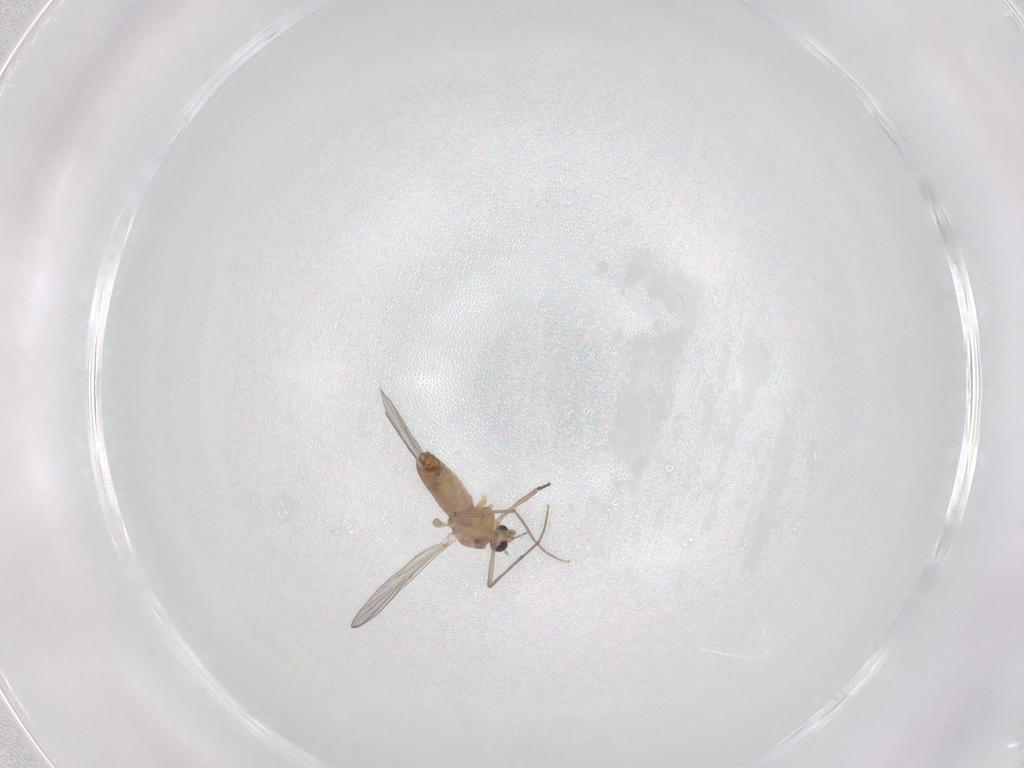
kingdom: Animalia
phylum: Arthropoda
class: Insecta
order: Diptera
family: Chironomidae
